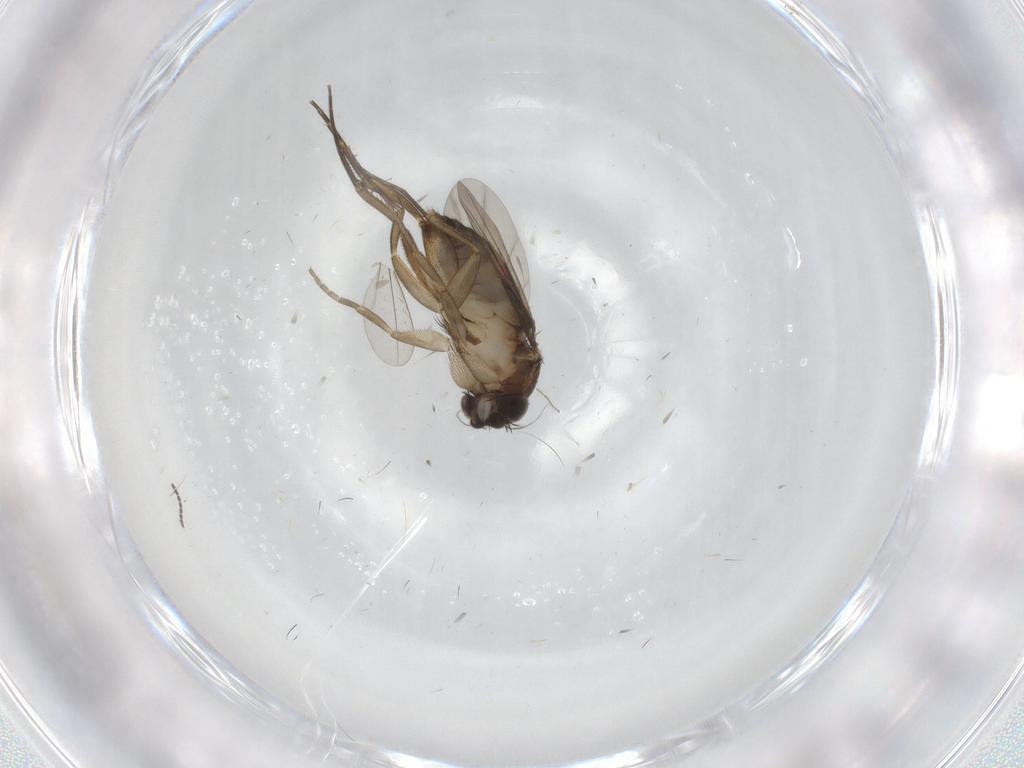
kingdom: Animalia
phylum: Arthropoda
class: Insecta
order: Diptera
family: Phoridae
